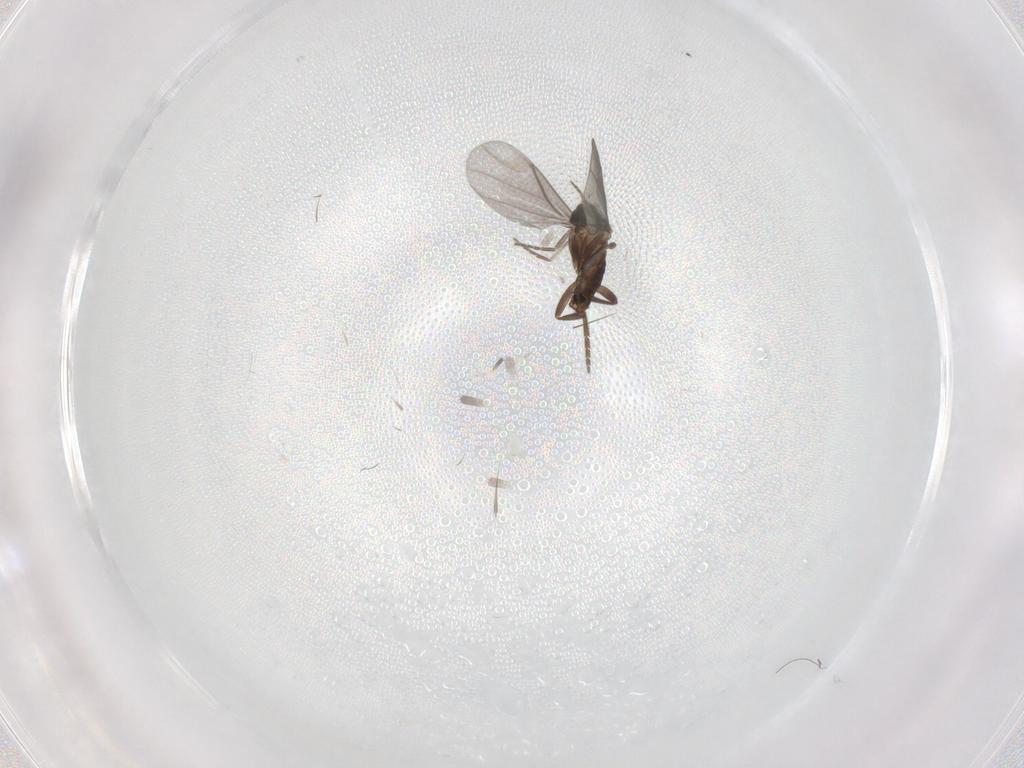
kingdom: Animalia
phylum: Arthropoda
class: Insecta
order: Diptera
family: Phoridae
